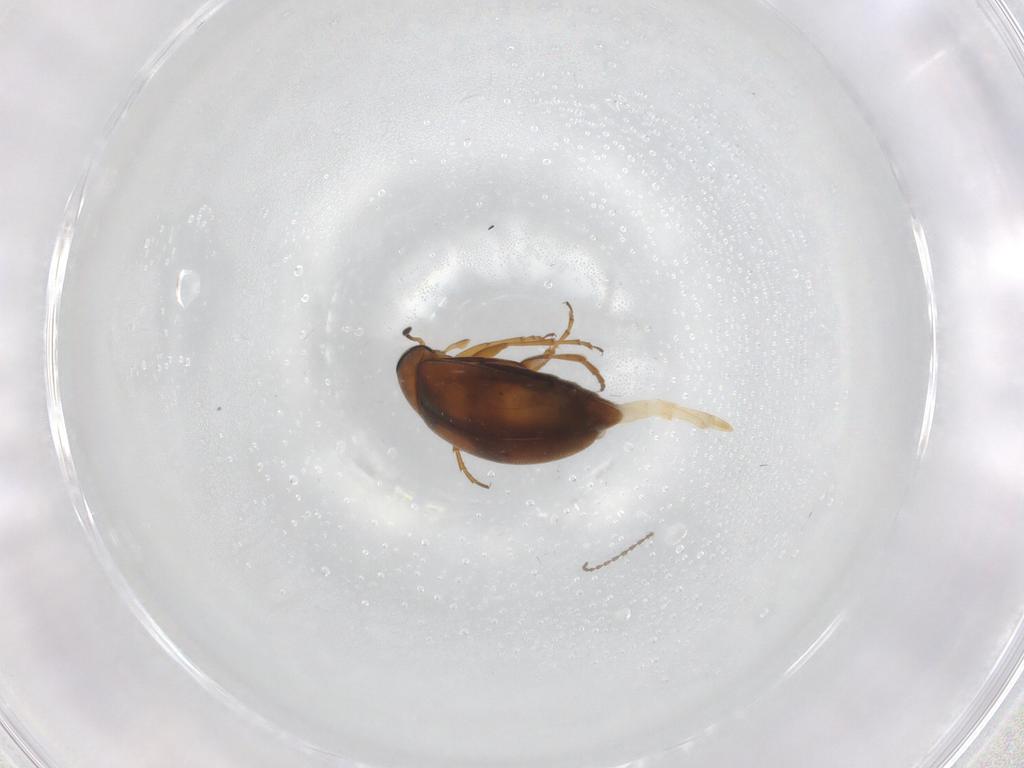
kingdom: Animalia
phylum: Arthropoda
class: Insecta
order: Coleoptera
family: Scraptiidae
